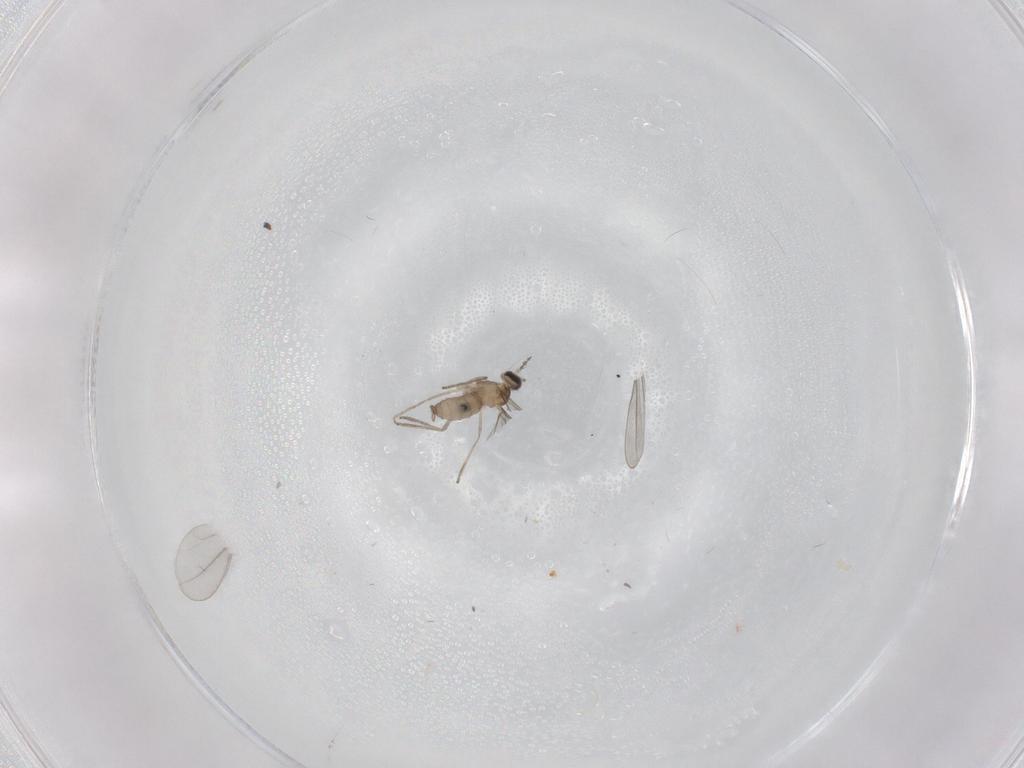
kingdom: Animalia
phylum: Arthropoda
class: Insecta
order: Diptera
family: Cecidomyiidae
